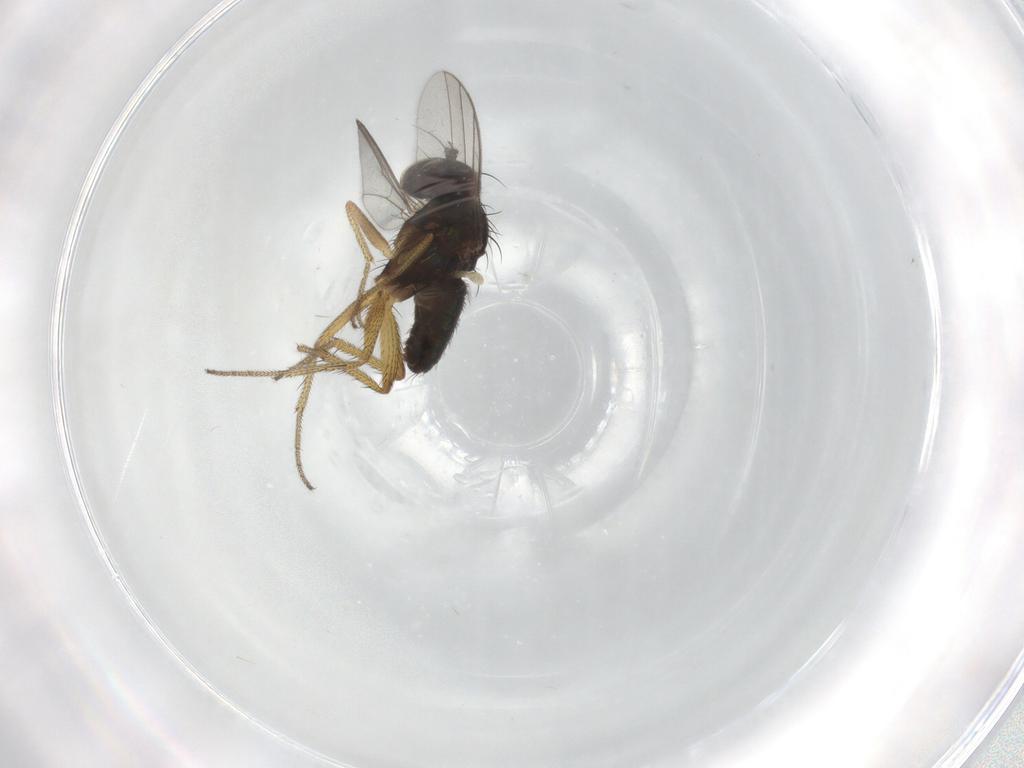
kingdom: Animalia
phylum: Arthropoda
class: Insecta
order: Diptera
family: Dolichopodidae
